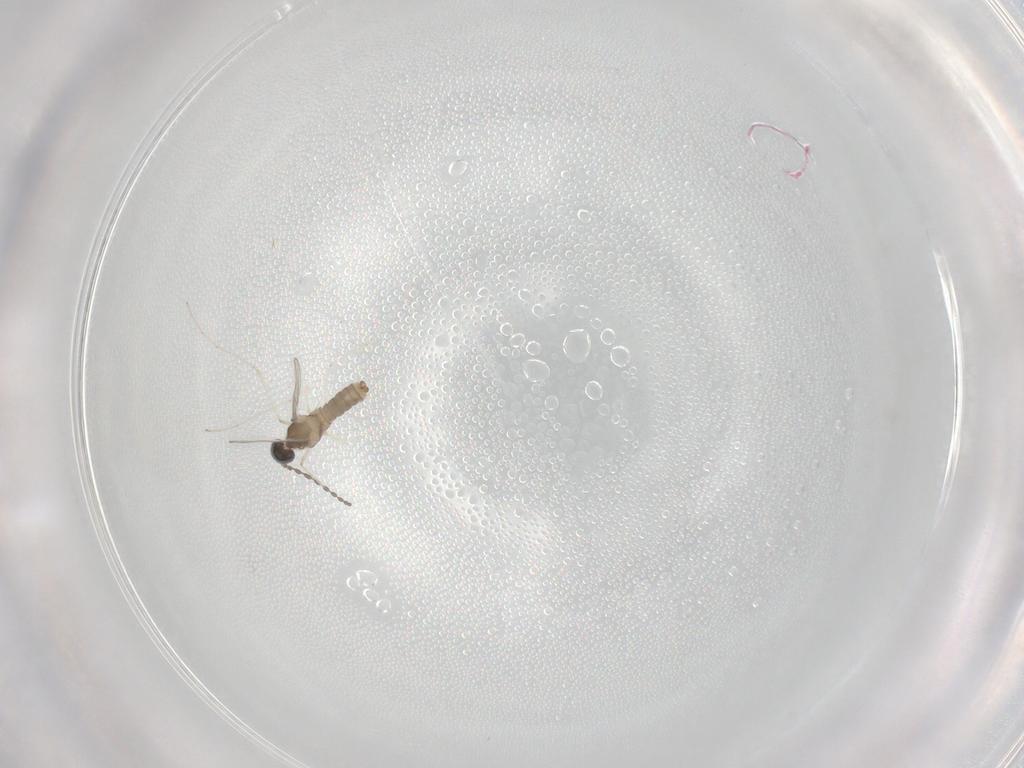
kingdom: Animalia
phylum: Arthropoda
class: Insecta
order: Diptera
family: Cecidomyiidae
